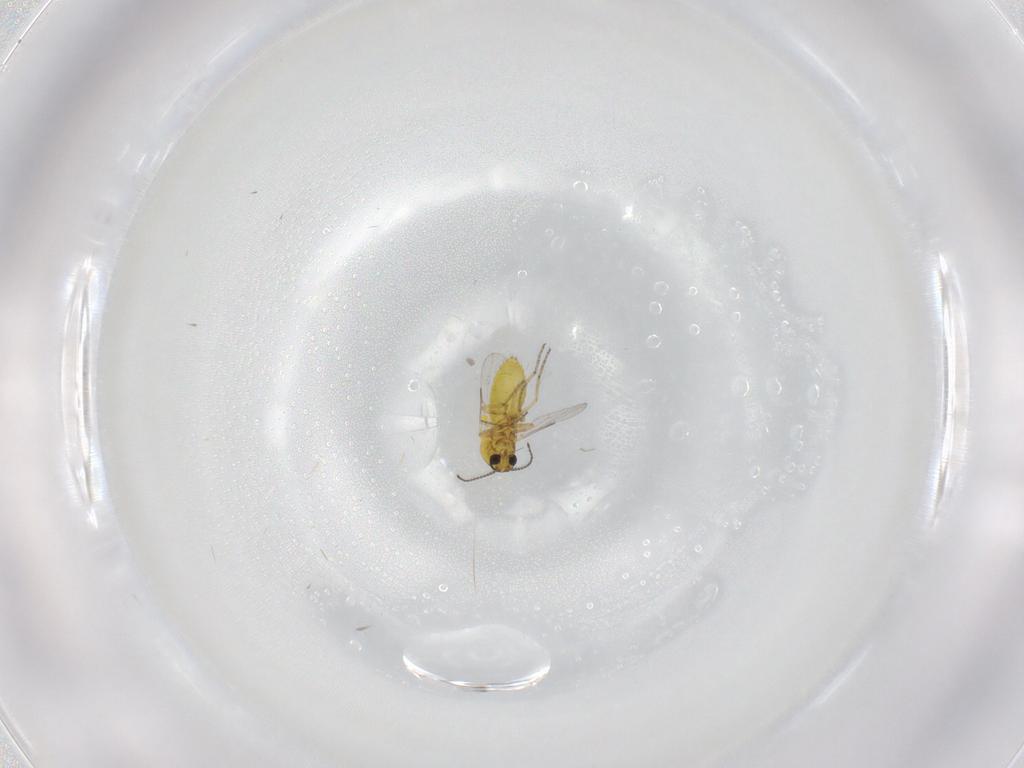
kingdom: Animalia
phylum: Arthropoda
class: Insecta
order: Diptera
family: Ceratopogonidae
